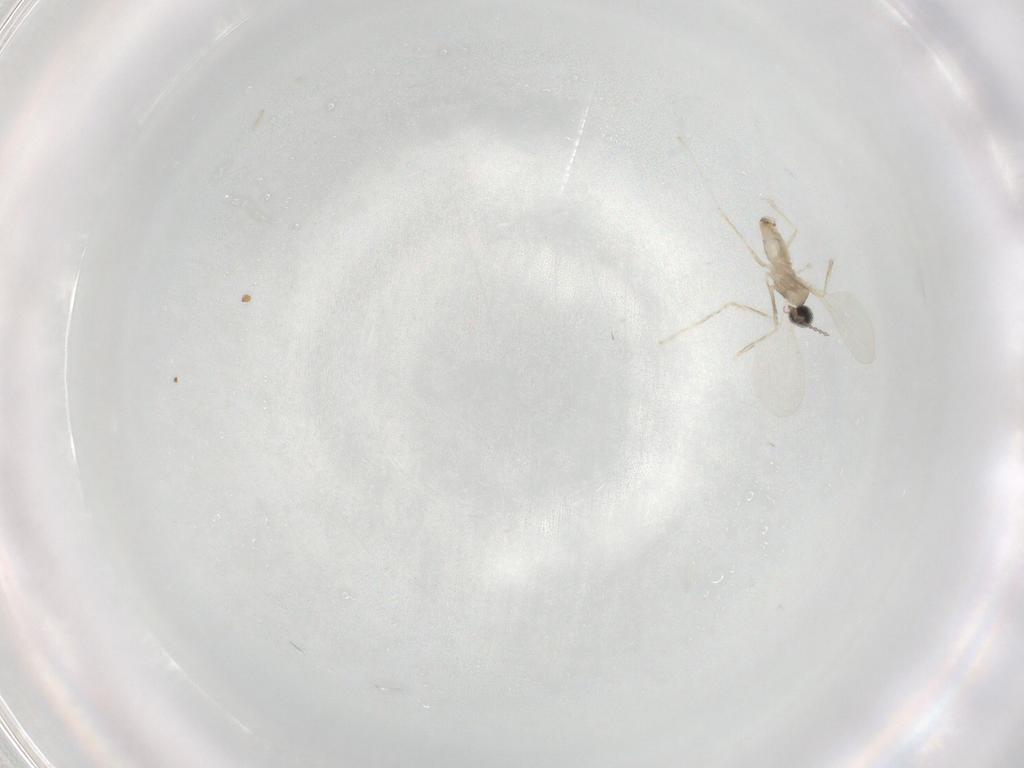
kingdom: Animalia
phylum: Arthropoda
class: Insecta
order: Diptera
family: Cecidomyiidae
